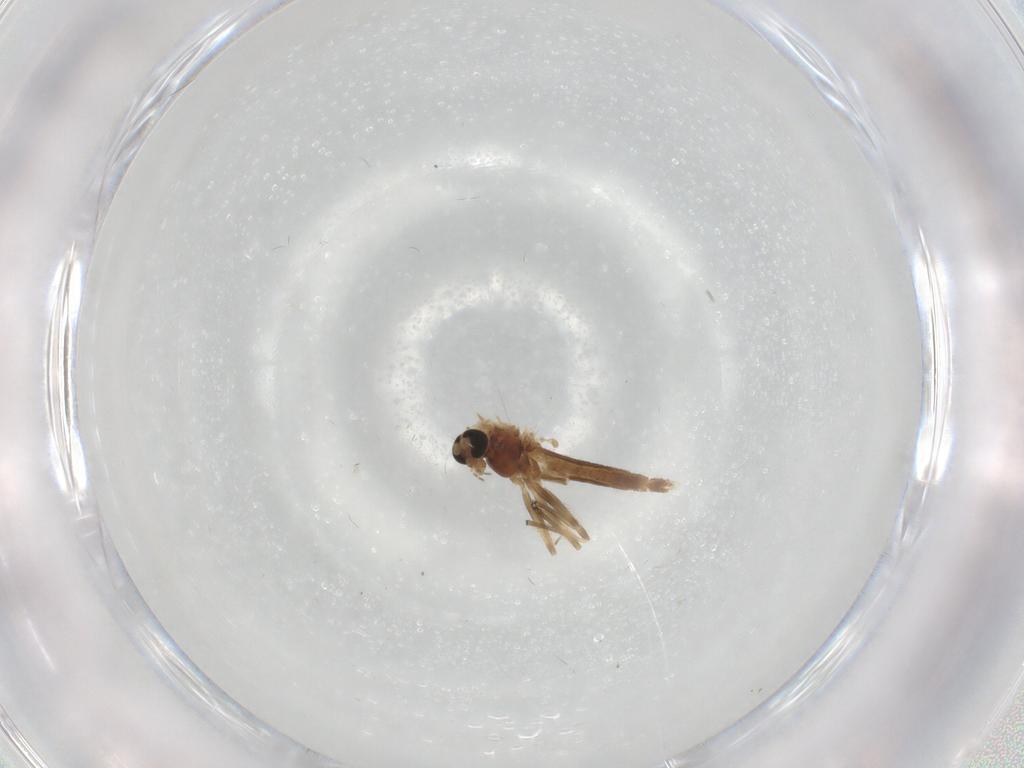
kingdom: Animalia
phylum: Arthropoda
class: Insecta
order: Diptera
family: Chironomidae
